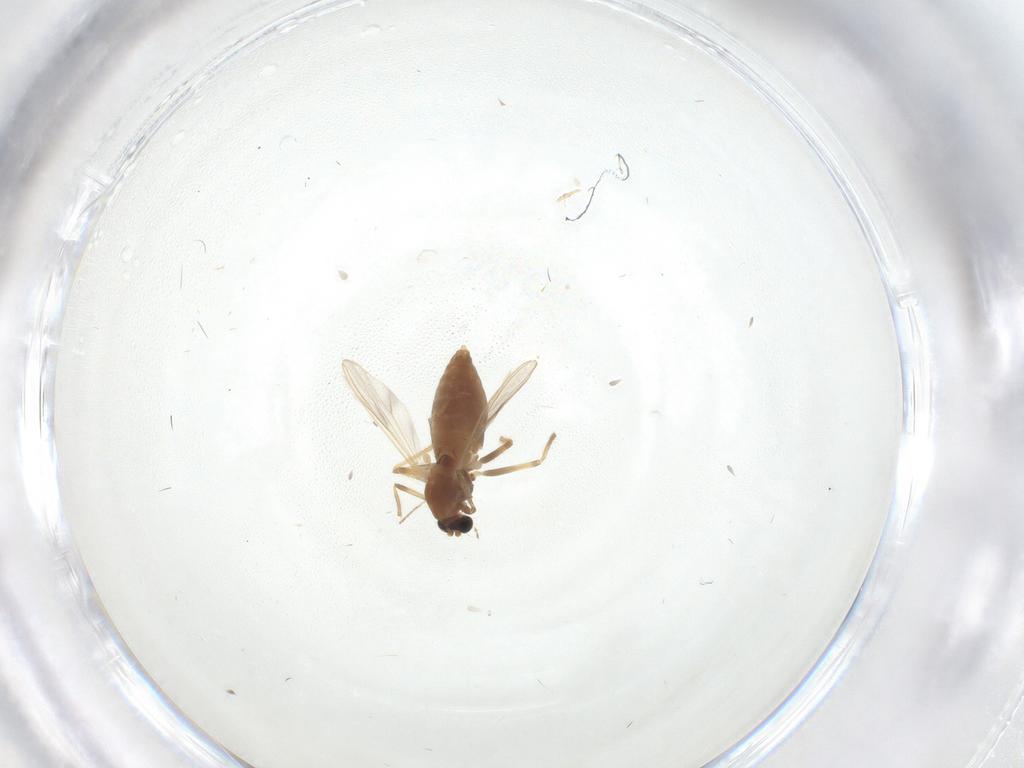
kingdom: Animalia
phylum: Arthropoda
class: Insecta
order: Diptera
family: Chironomidae
